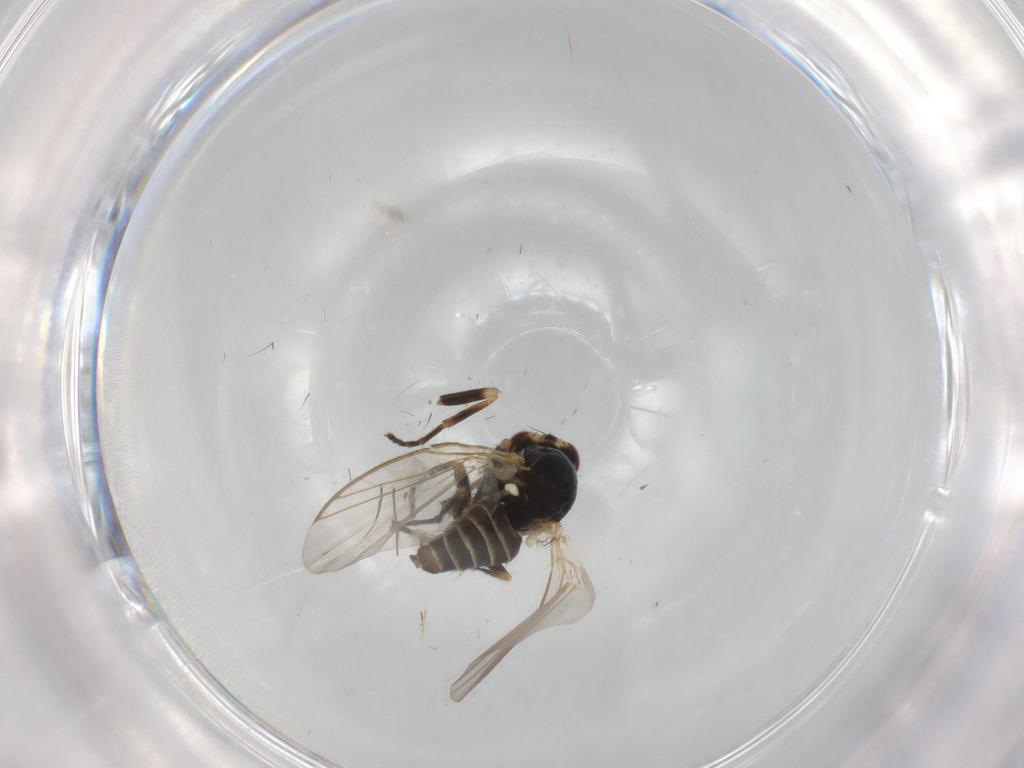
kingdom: Animalia
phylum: Arthropoda
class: Insecta
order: Diptera
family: Agromyzidae
